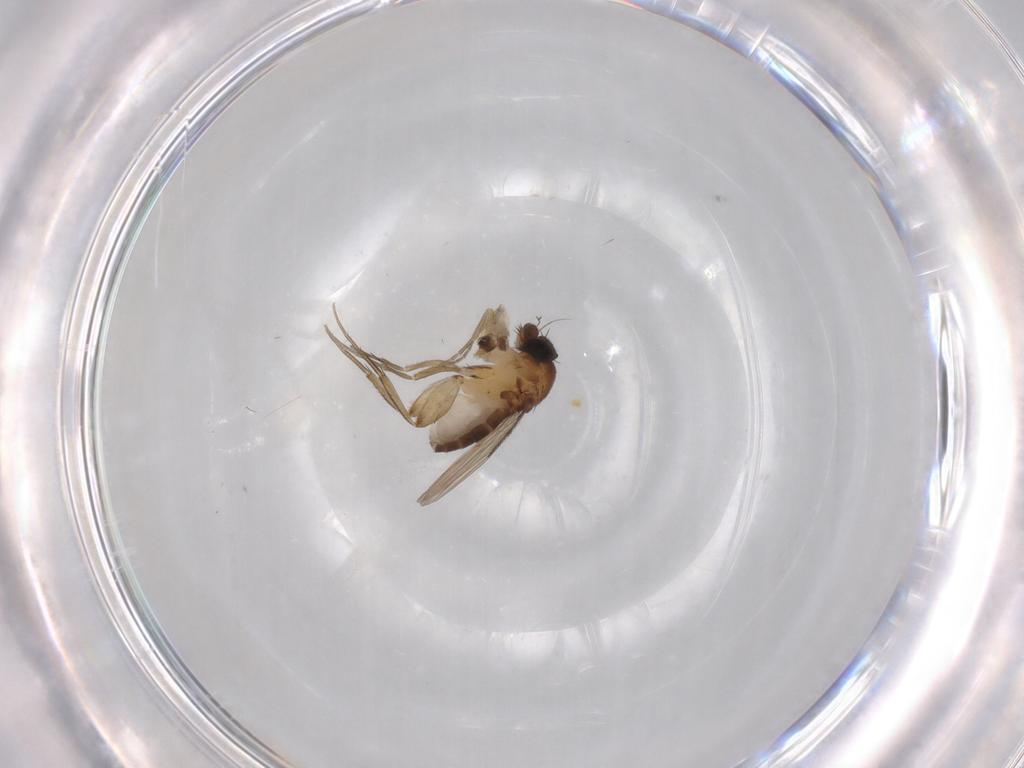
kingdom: Animalia
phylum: Arthropoda
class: Insecta
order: Diptera
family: Phoridae
